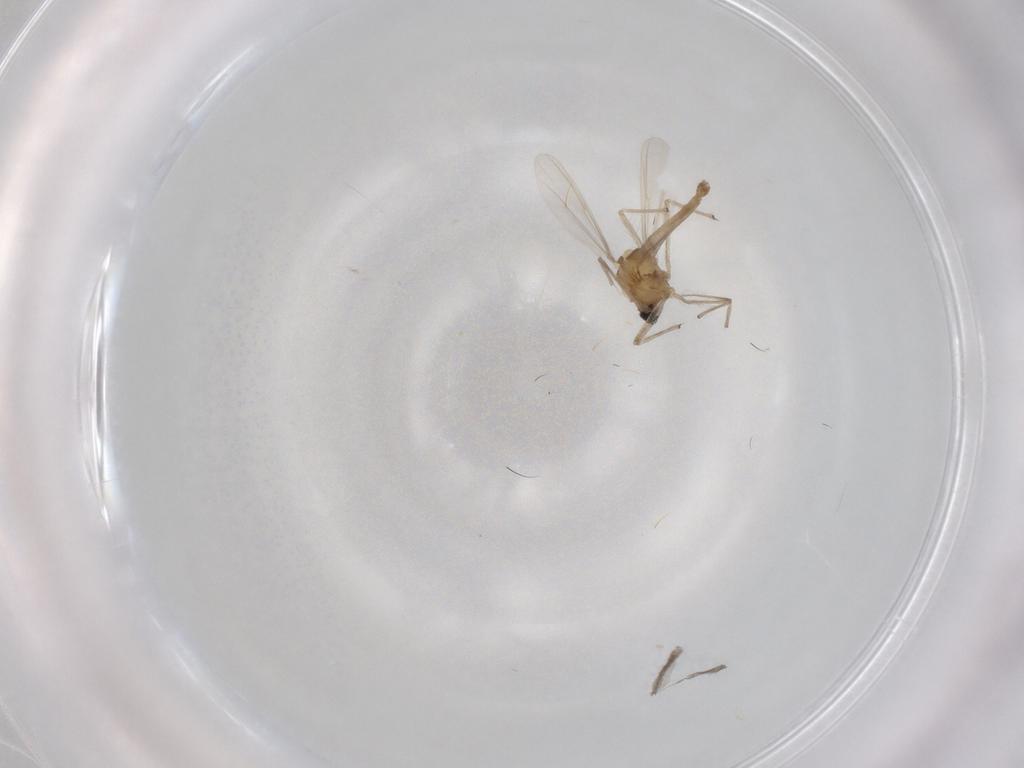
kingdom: Animalia
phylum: Arthropoda
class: Insecta
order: Diptera
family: Chironomidae
